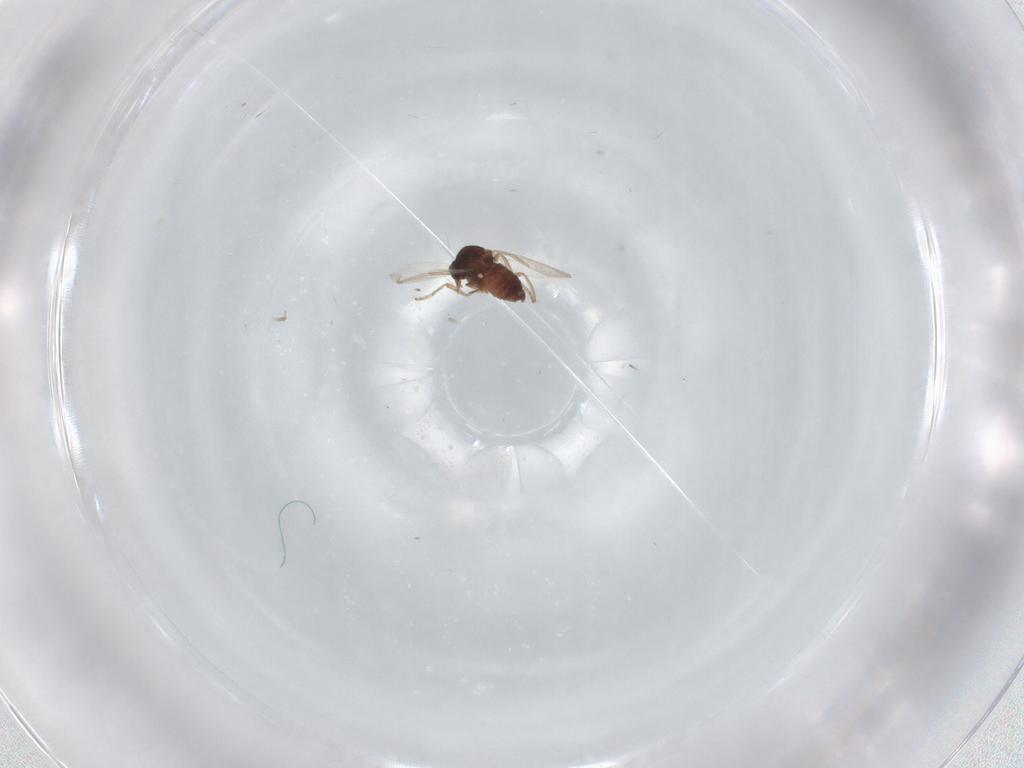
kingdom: Animalia
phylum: Arthropoda
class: Insecta
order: Diptera
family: Ceratopogonidae
